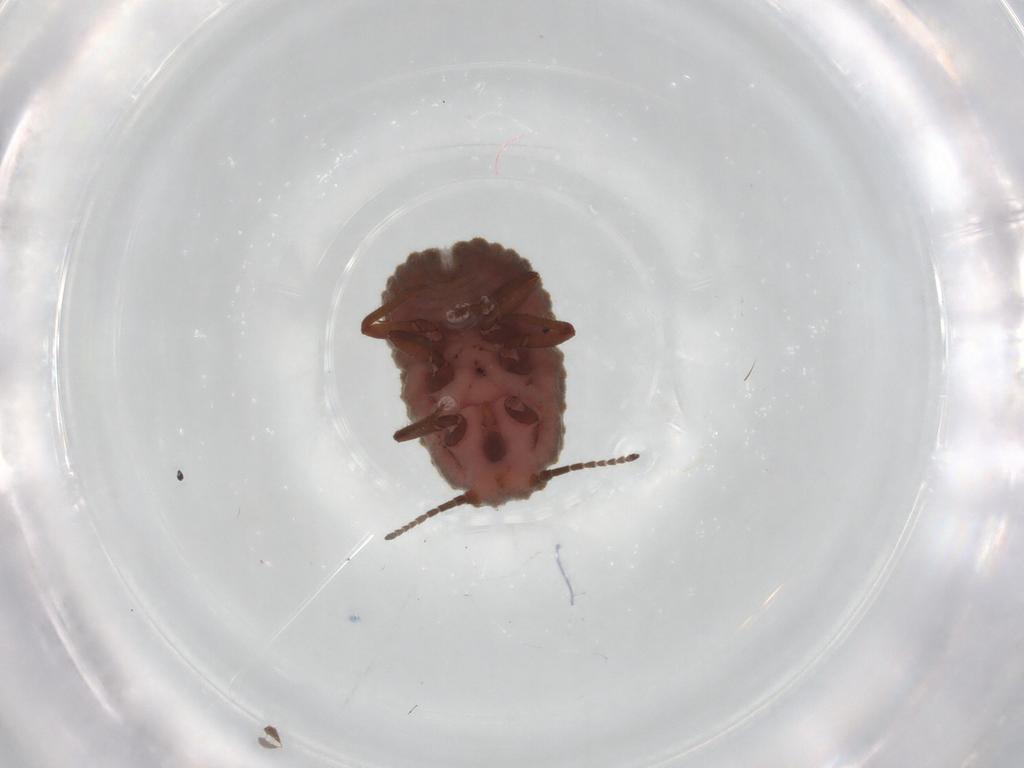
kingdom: Animalia
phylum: Arthropoda
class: Insecta
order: Hemiptera
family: Putoidae
